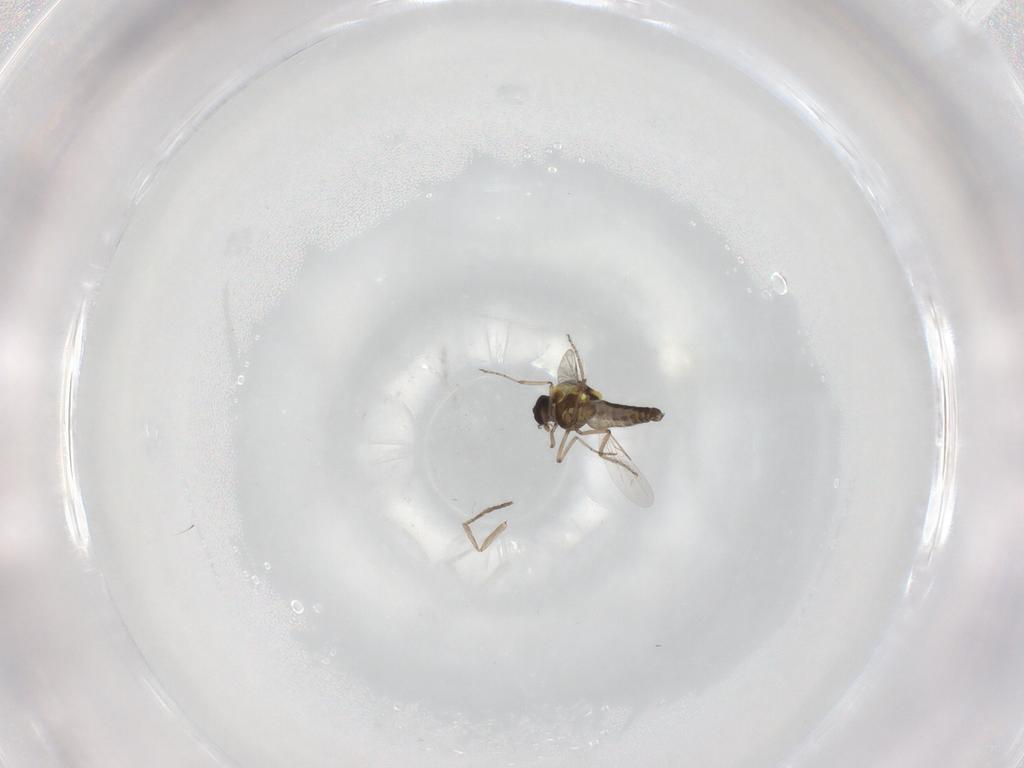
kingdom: Animalia
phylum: Arthropoda
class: Insecta
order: Diptera
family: Ceratopogonidae
